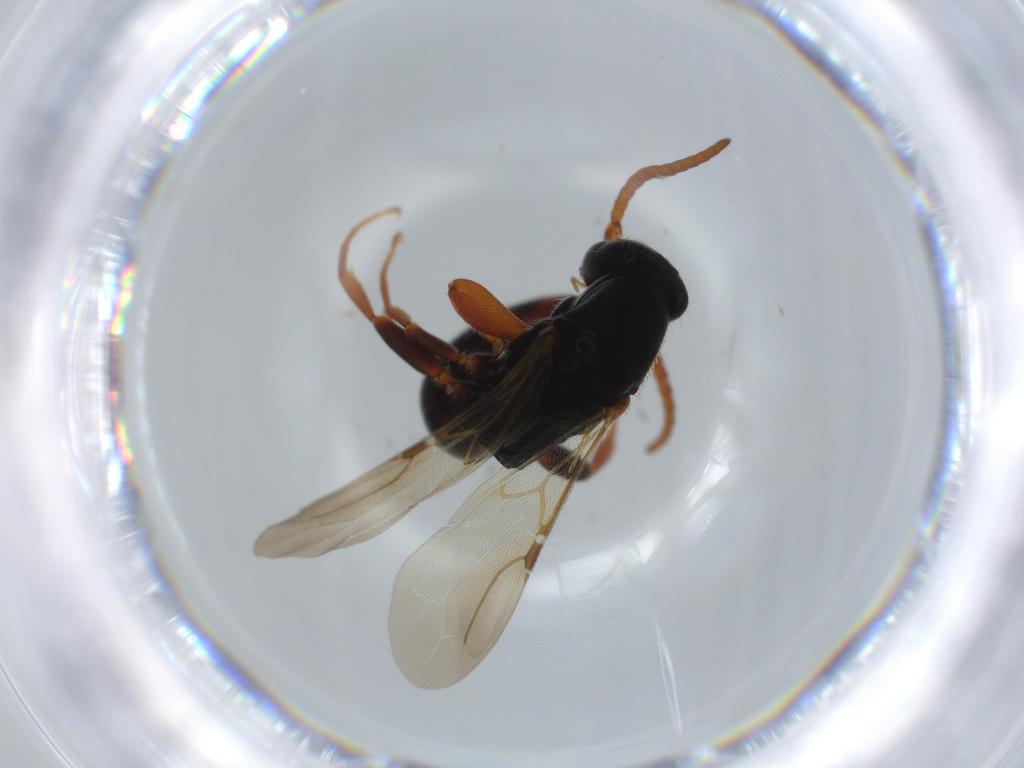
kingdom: Animalia
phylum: Arthropoda
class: Insecta
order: Hymenoptera
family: Bethylidae
